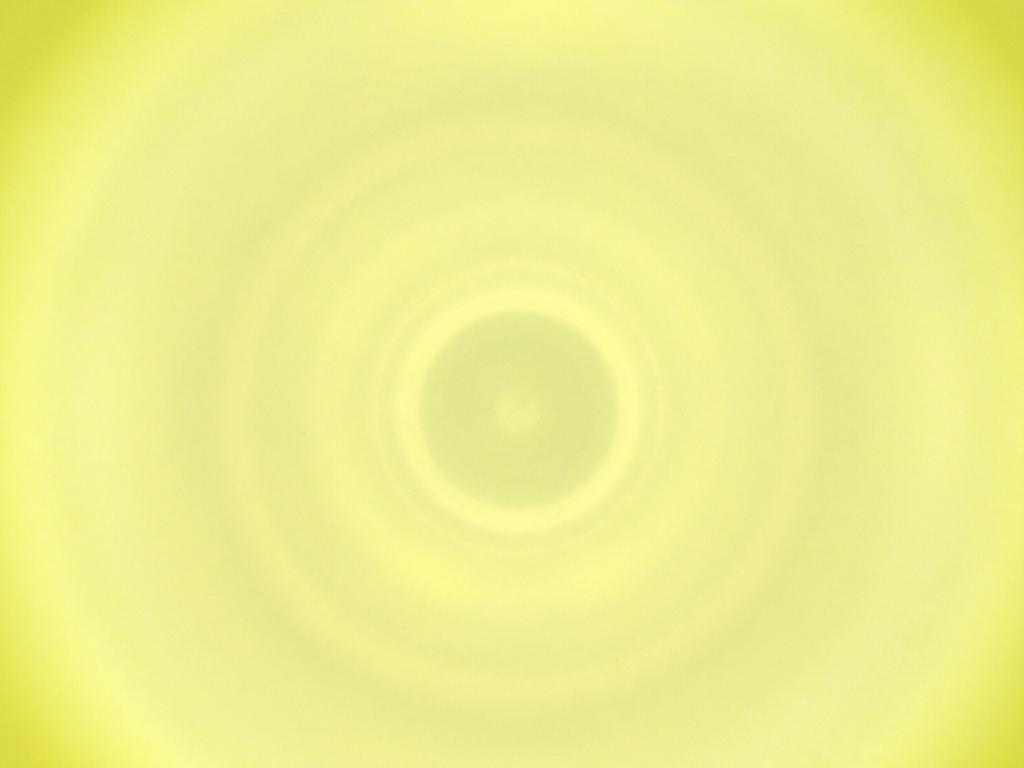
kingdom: Animalia
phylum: Arthropoda
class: Insecta
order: Diptera
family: Cecidomyiidae
